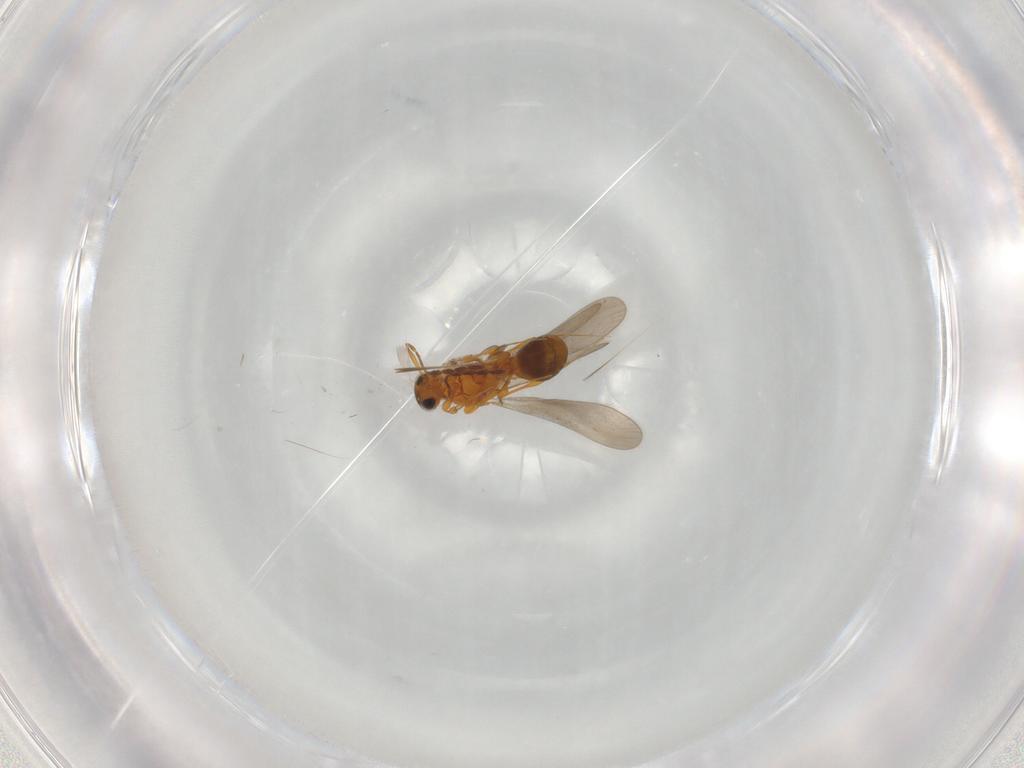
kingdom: Animalia
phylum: Arthropoda
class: Insecta
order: Hymenoptera
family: Platygastridae
